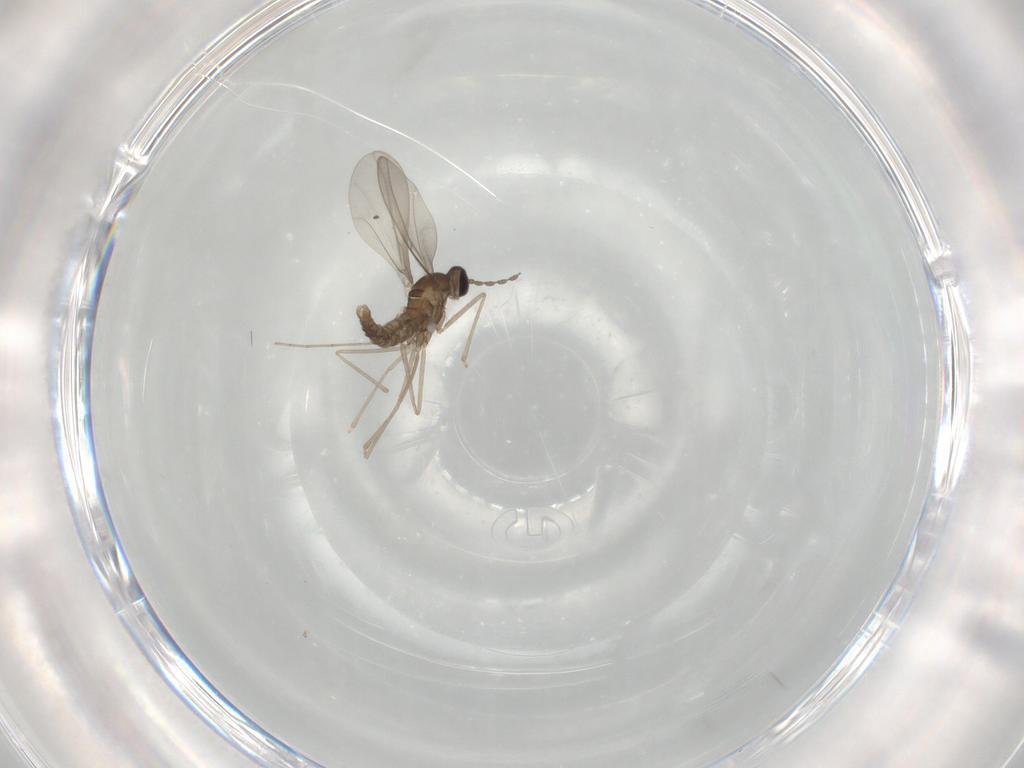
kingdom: Animalia
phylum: Arthropoda
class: Insecta
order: Diptera
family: Cecidomyiidae
